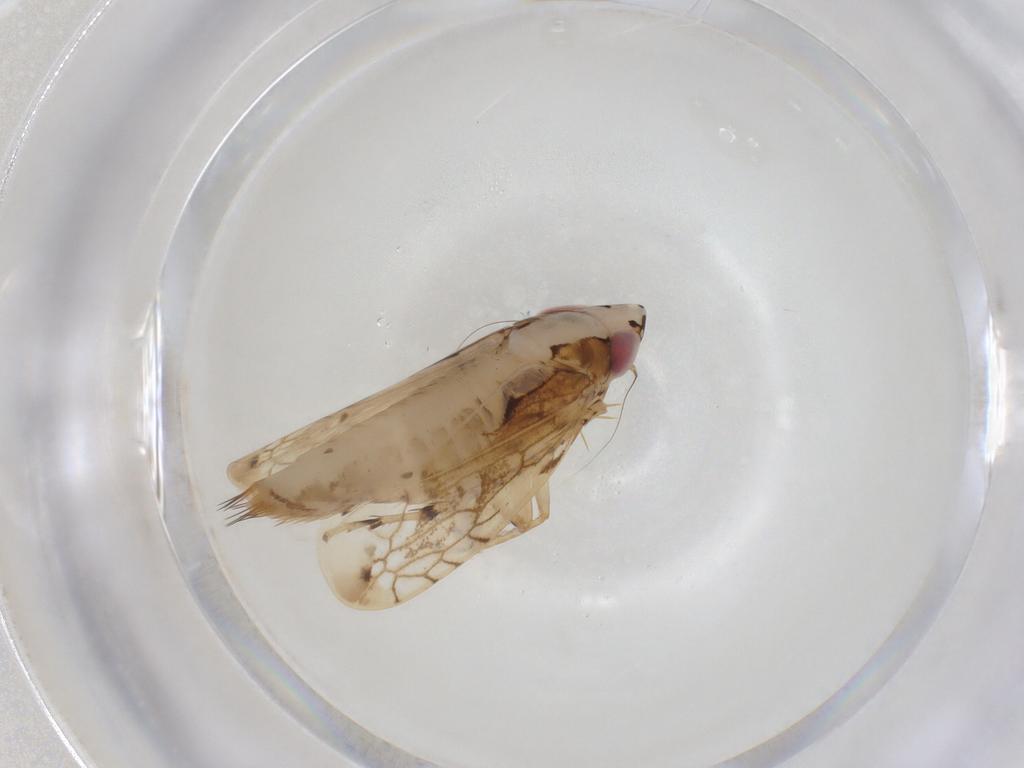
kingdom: Animalia
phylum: Arthropoda
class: Insecta
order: Hemiptera
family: Cicadellidae
